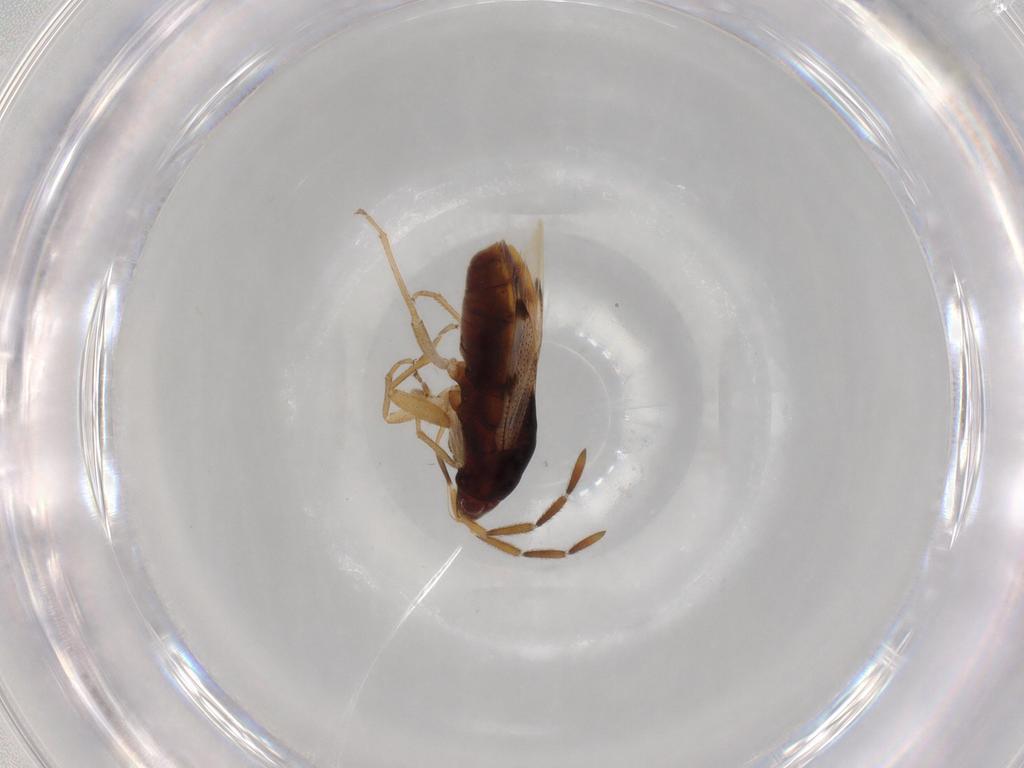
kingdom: Animalia
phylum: Arthropoda
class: Insecta
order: Hemiptera
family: Rhyparochromidae
